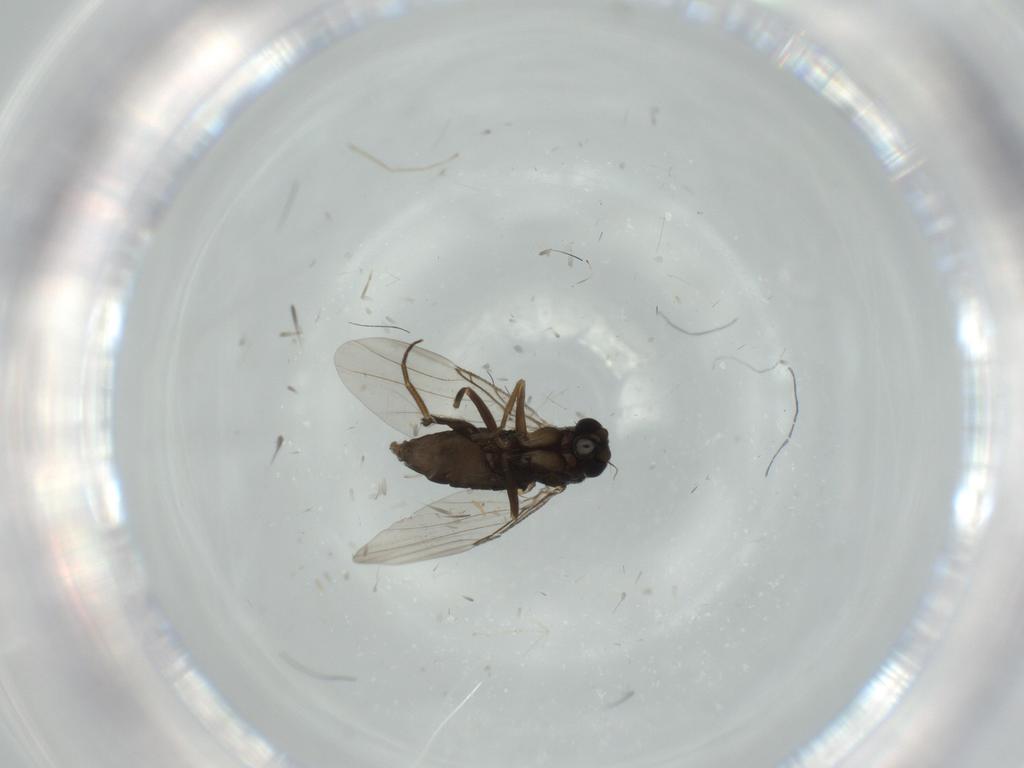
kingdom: Animalia
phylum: Arthropoda
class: Insecta
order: Diptera
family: Phoridae
